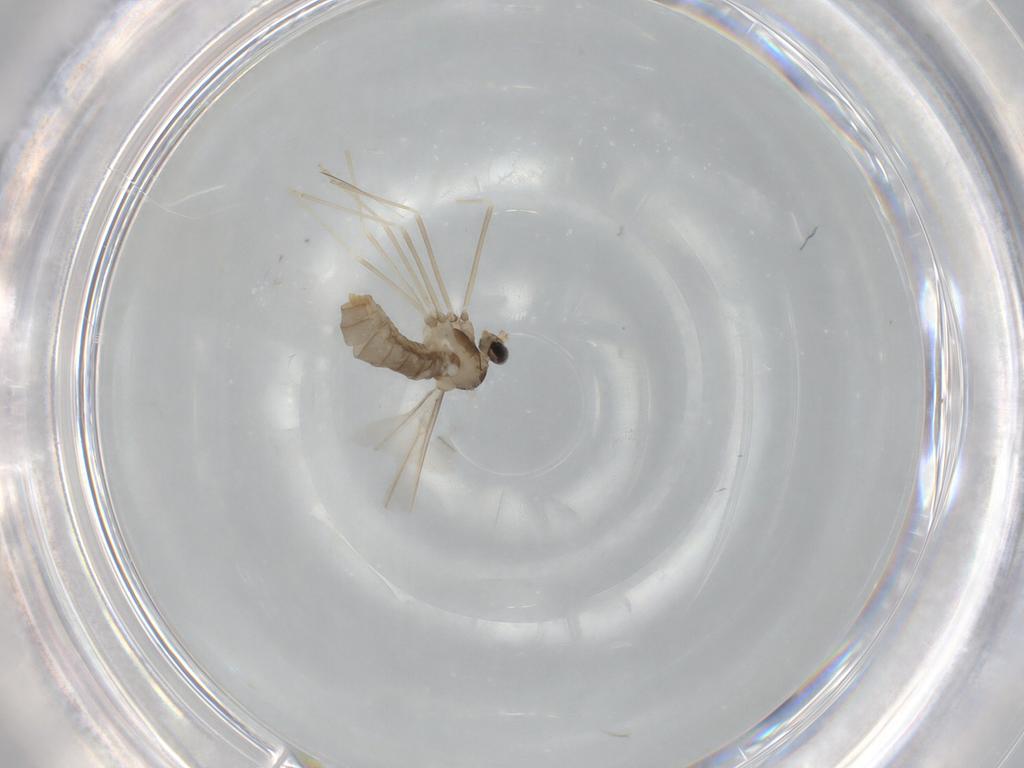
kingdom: Animalia
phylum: Arthropoda
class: Insecta
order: Diptera
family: Cecidomyiidae
